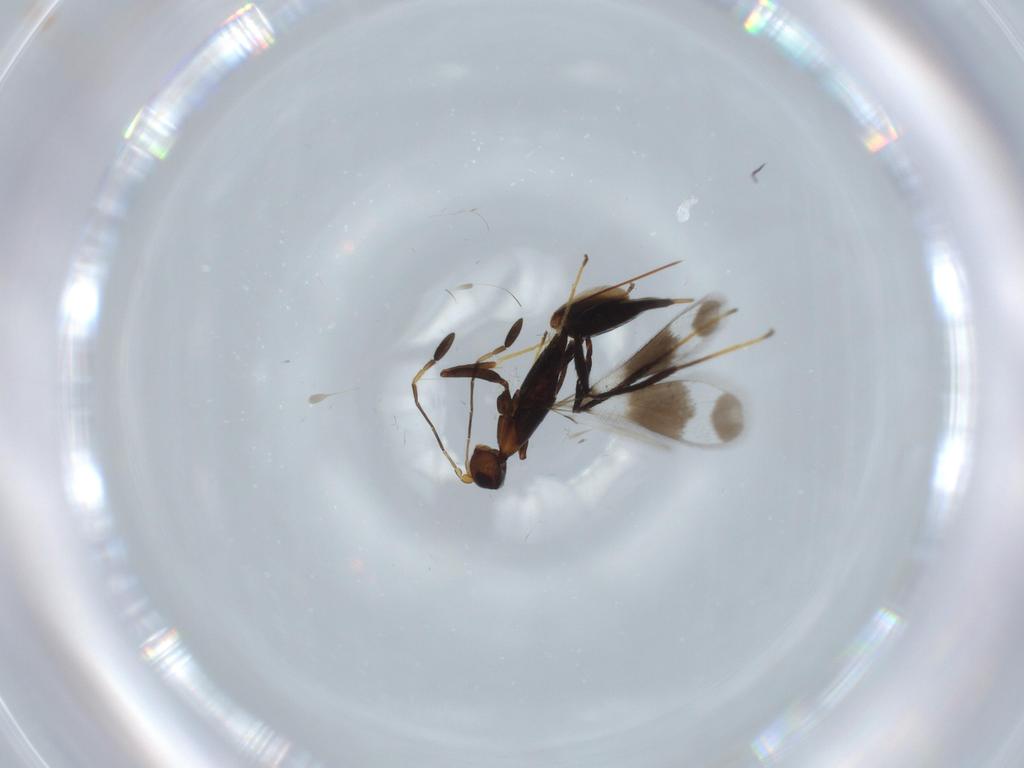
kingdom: Animalia
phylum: Arthropoda
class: Insecta
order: Hymenoptera
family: Mymaridae
